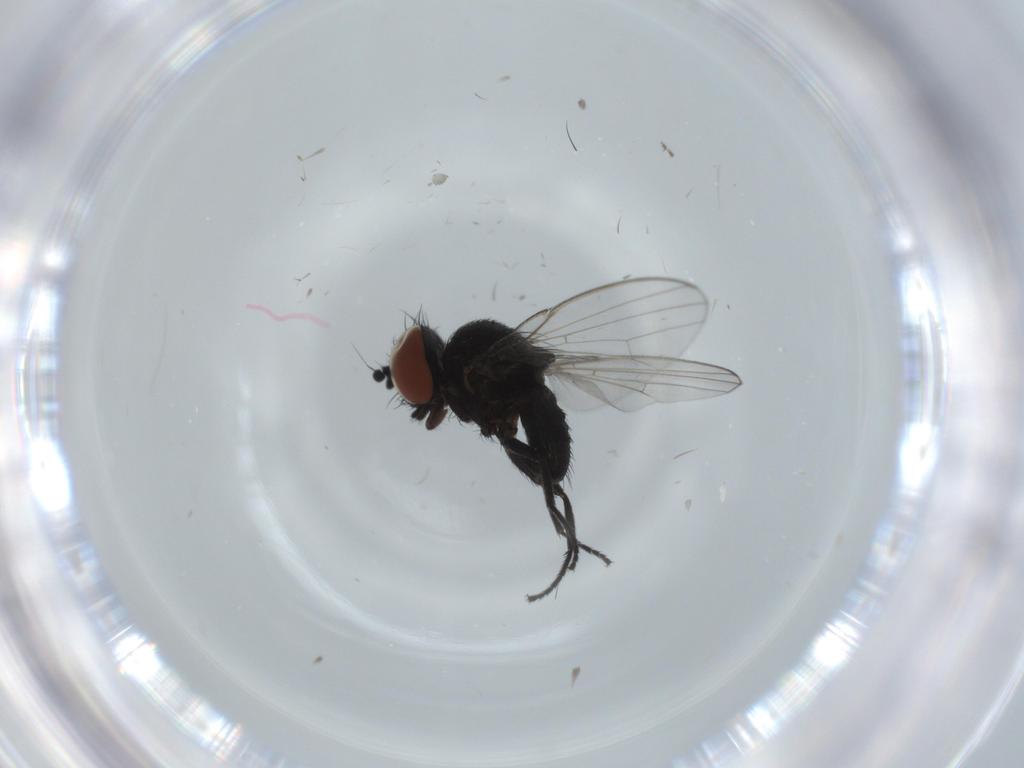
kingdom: Animalia
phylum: Arthropoda
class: Insecta
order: Diptera
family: Milichiidae
